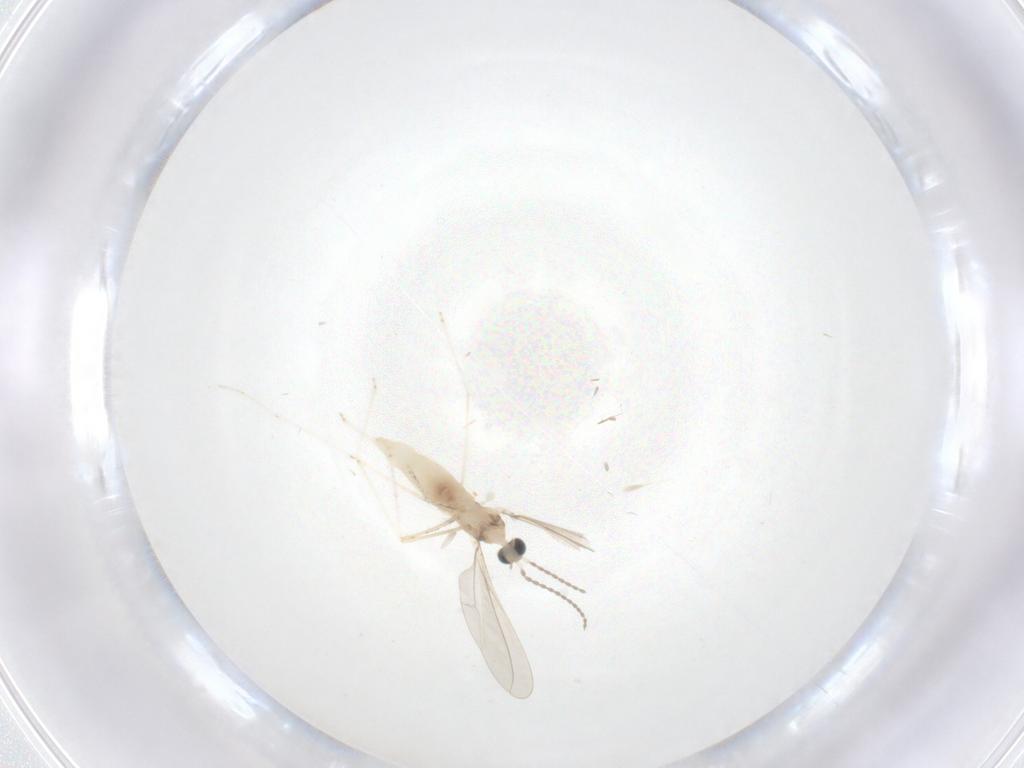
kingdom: Animalia
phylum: Arthropoda
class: Insecta
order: Diptera
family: Cecidomyiidae
